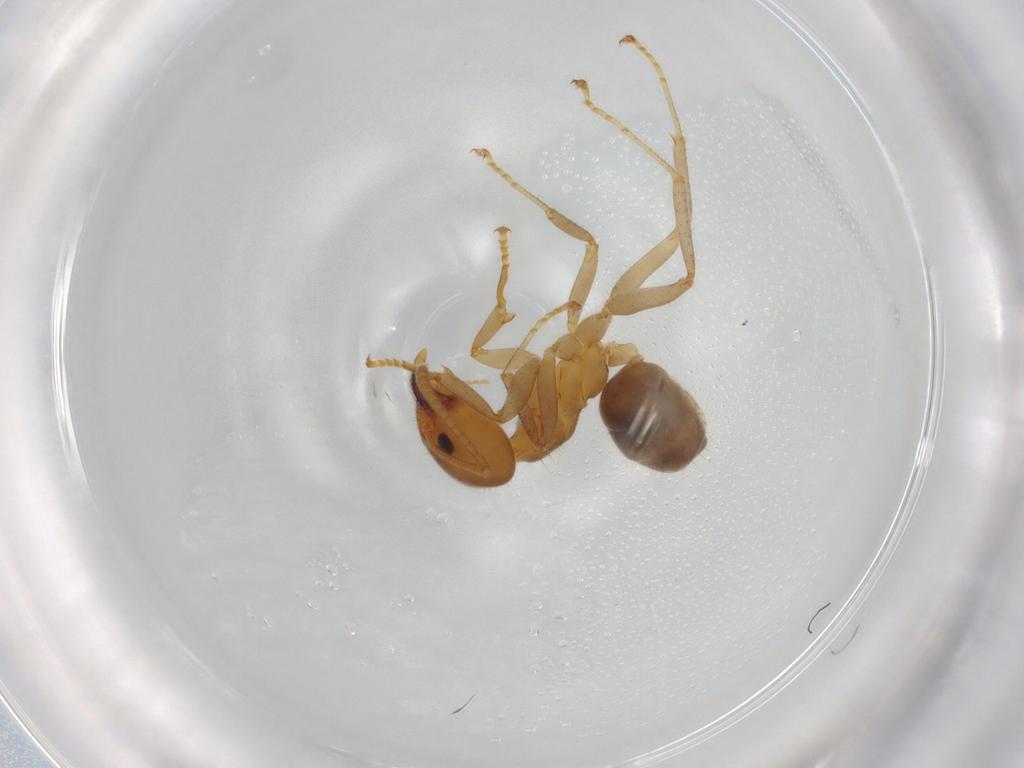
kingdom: Animalia
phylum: Arthropoda
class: Insecta
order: Hymenoptera
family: Formicidae
